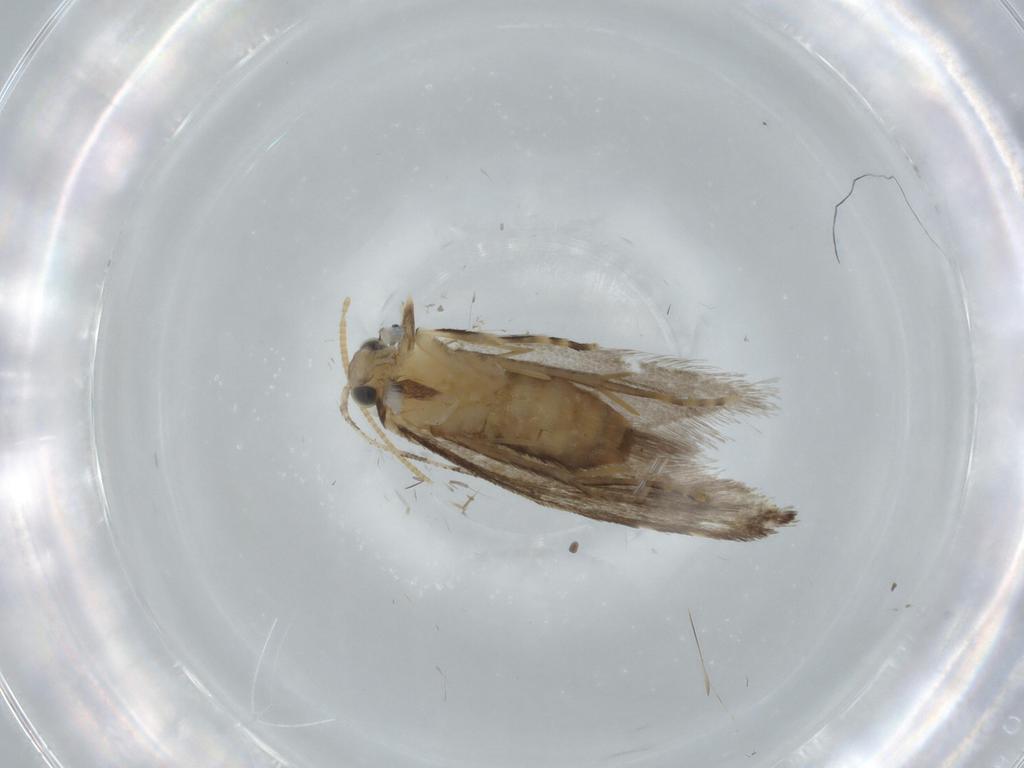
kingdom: Animalia
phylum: Arthropoda
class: Insecta
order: Lepidoptera
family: Tineidae
